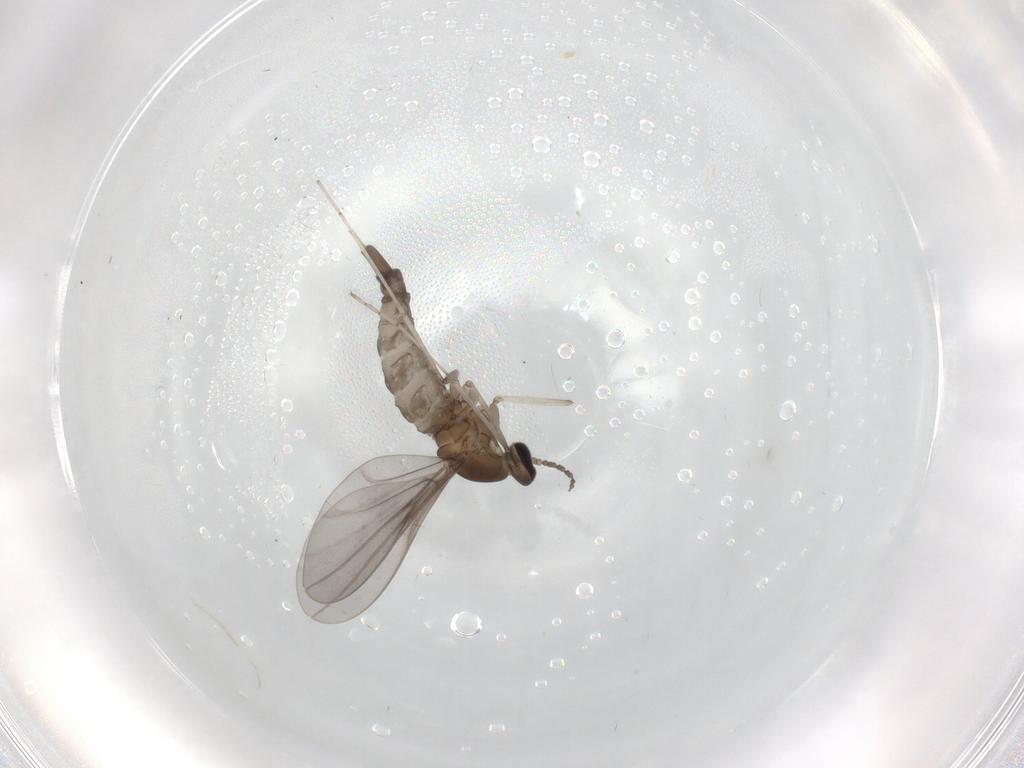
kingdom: Animalia
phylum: Arthropoda
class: Insecta
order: Diptera
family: Cecidomyiidae
